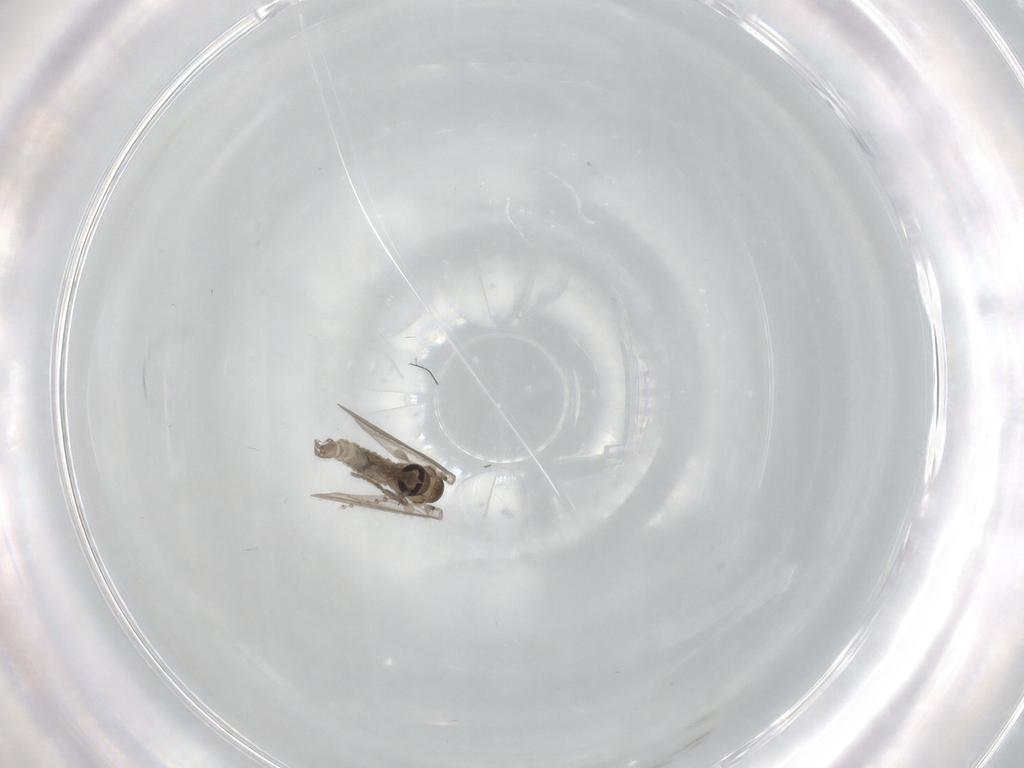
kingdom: Animalia
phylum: Arthropoda
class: Insecta
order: Diptera
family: Psychodidae
